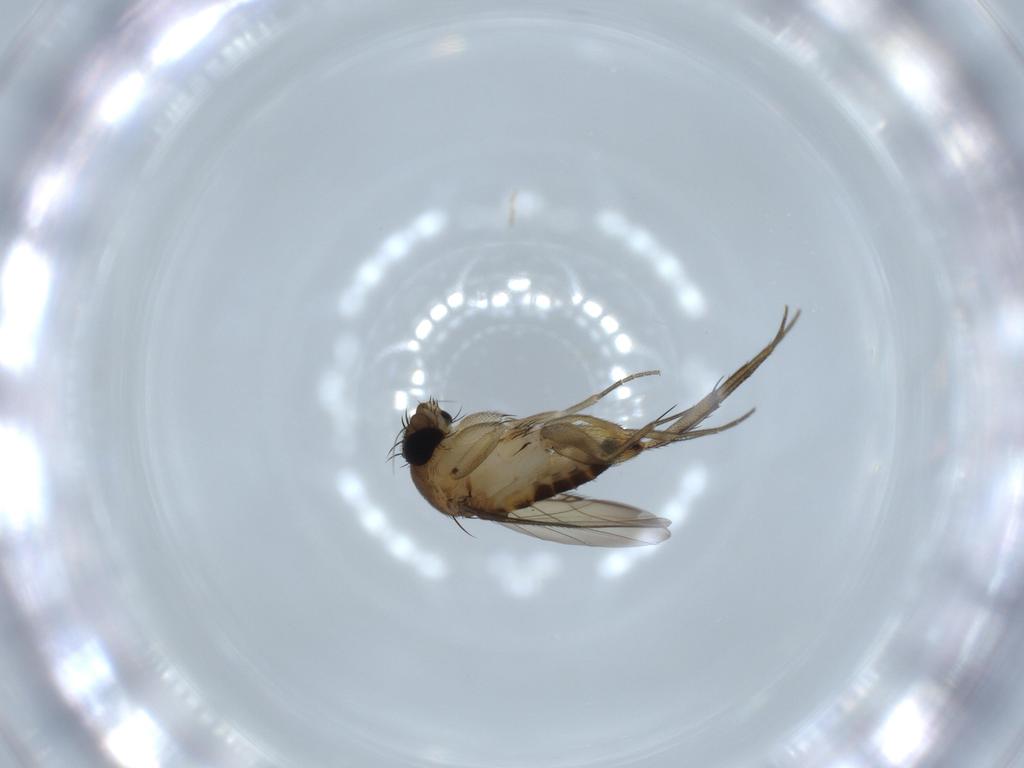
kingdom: Animalia
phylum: Arthropoda
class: Insecta
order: Diptera
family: Phoridae
